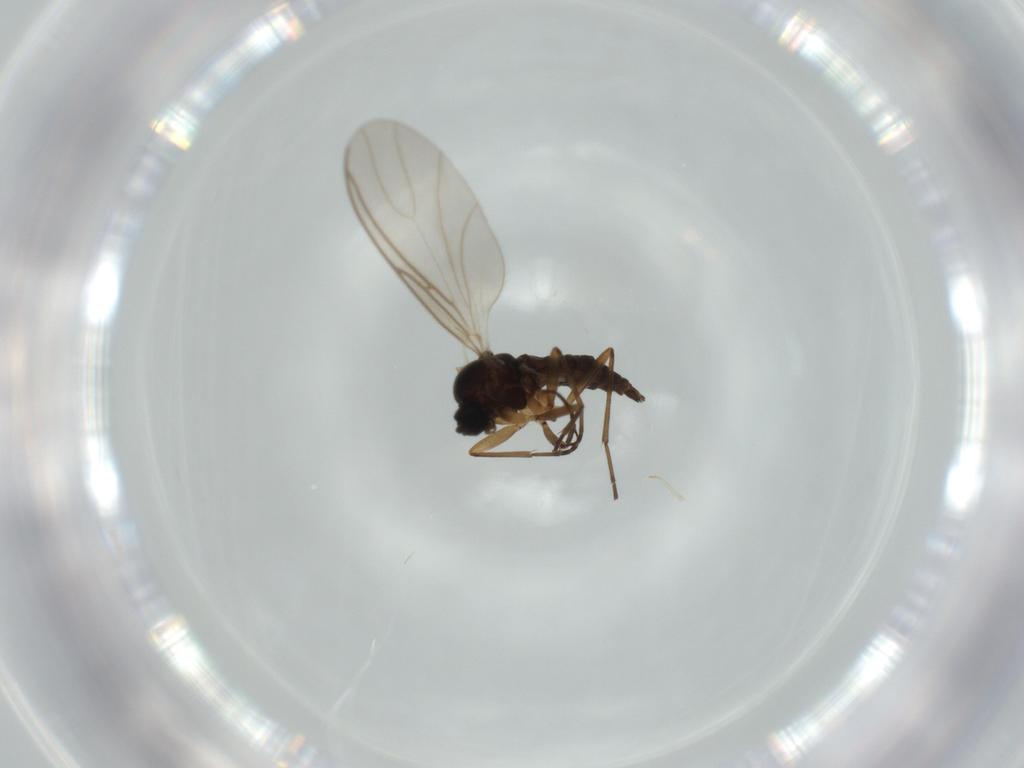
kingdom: Animalia
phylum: Arthropoda
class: Insecta
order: Diptera
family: Sciaridae
